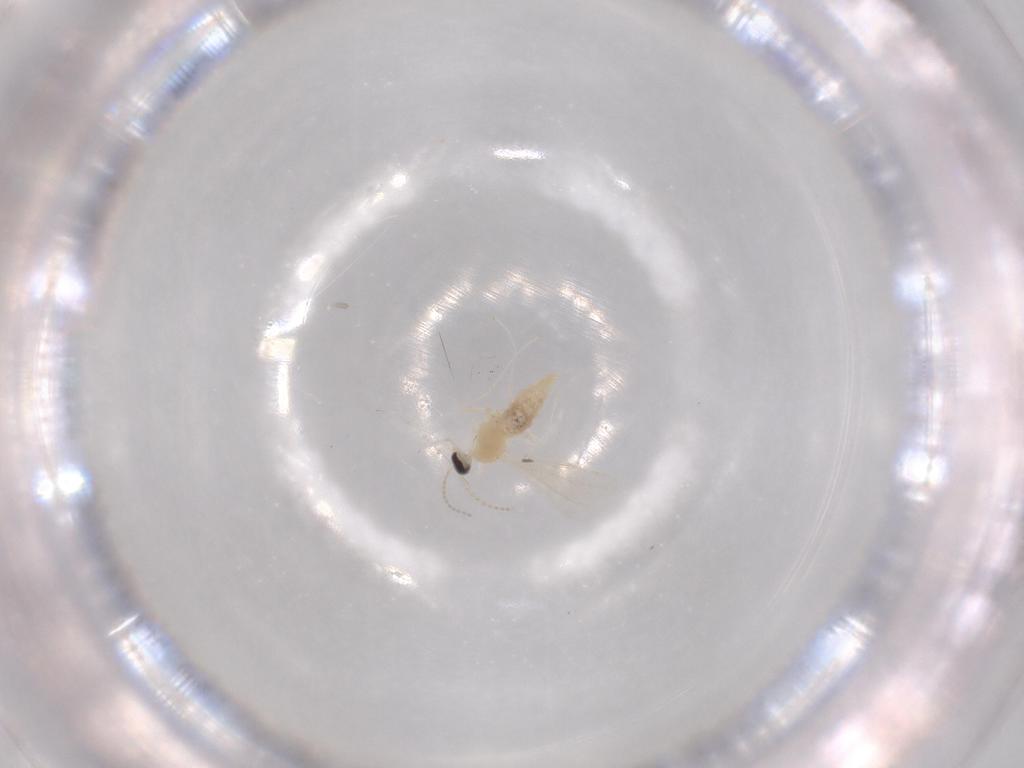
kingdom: Animalia
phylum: Arthropoda
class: Insecta
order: Diptera
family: Cecidomyiidae
